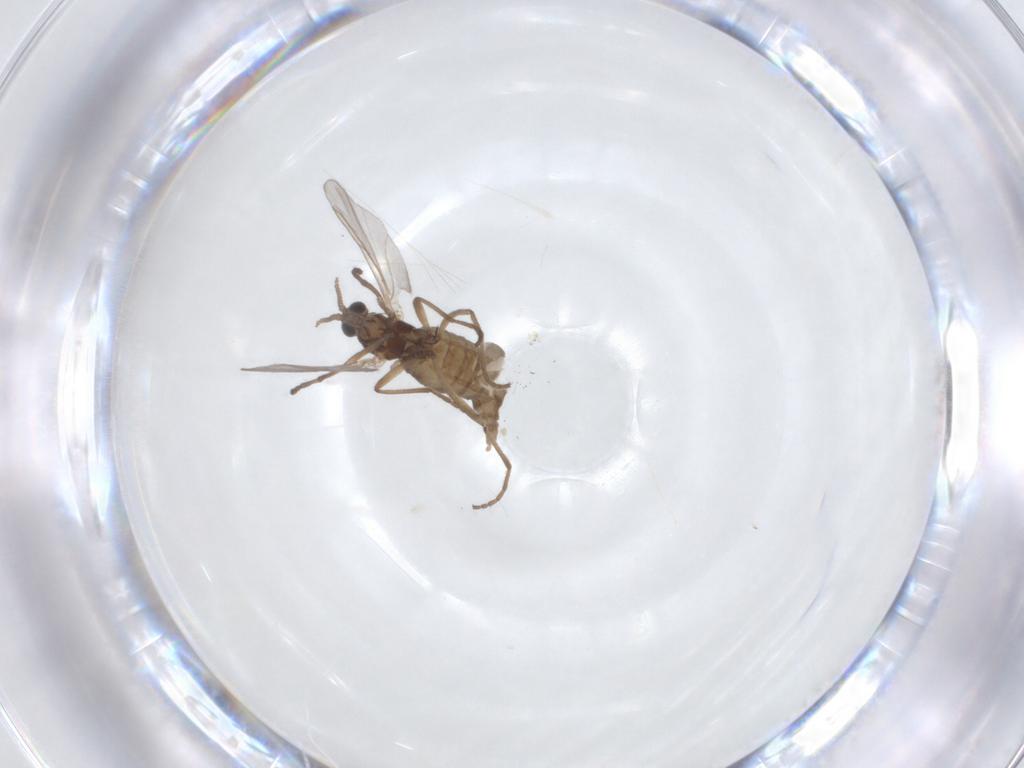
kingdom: Animalia
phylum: Arthropoda
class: Insecta
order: Diptera
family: Cecidomyiidae
